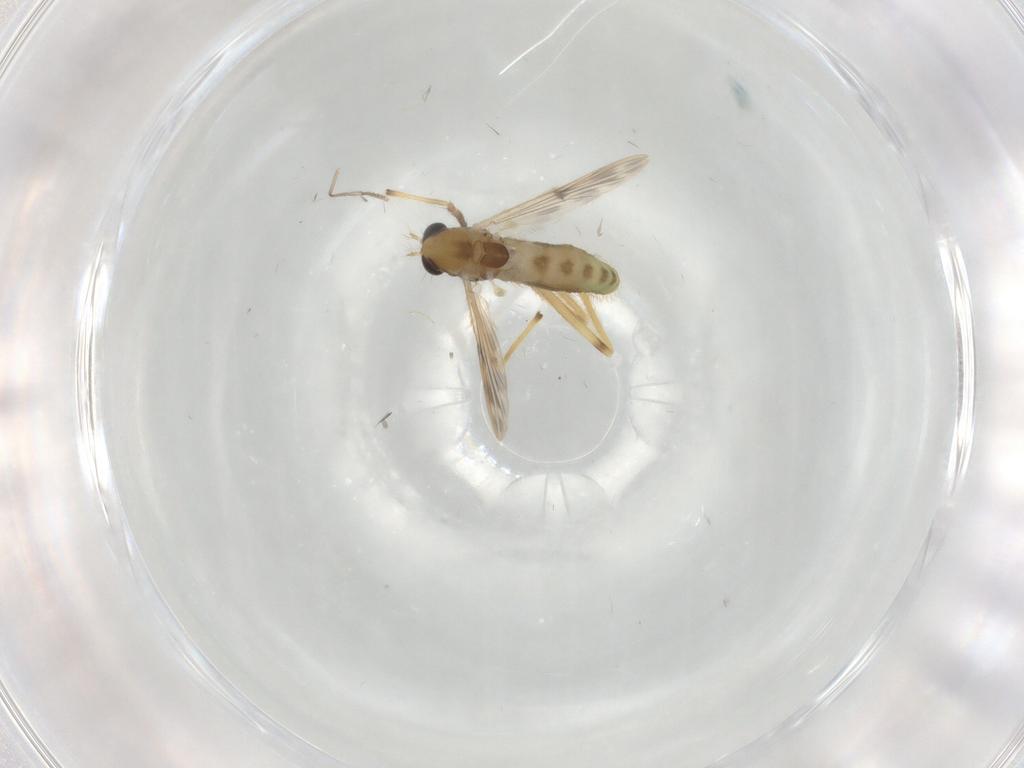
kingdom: Animalia
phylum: Arthropoda
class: Insecta
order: Diptera
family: Chironomidae
